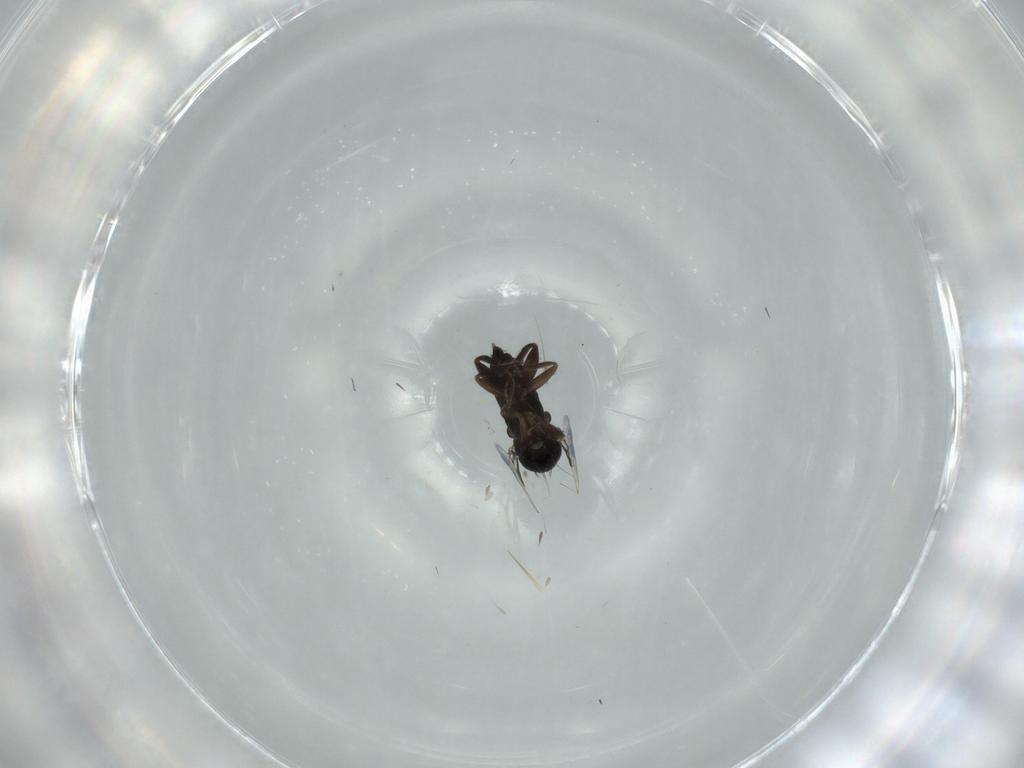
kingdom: Animalia
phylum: Arthropoda
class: Insecta
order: Diptera
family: Phoridae
